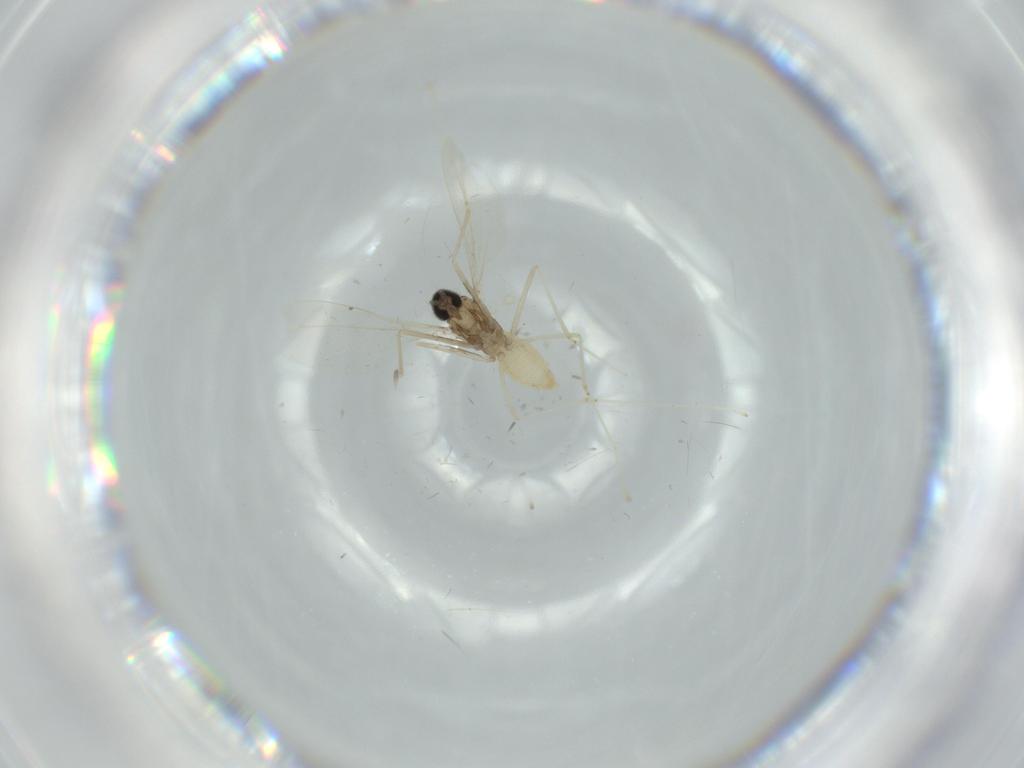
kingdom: Animalia
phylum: Arthropoda
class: Insecta
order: Diptera
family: Cecidomyiidae
